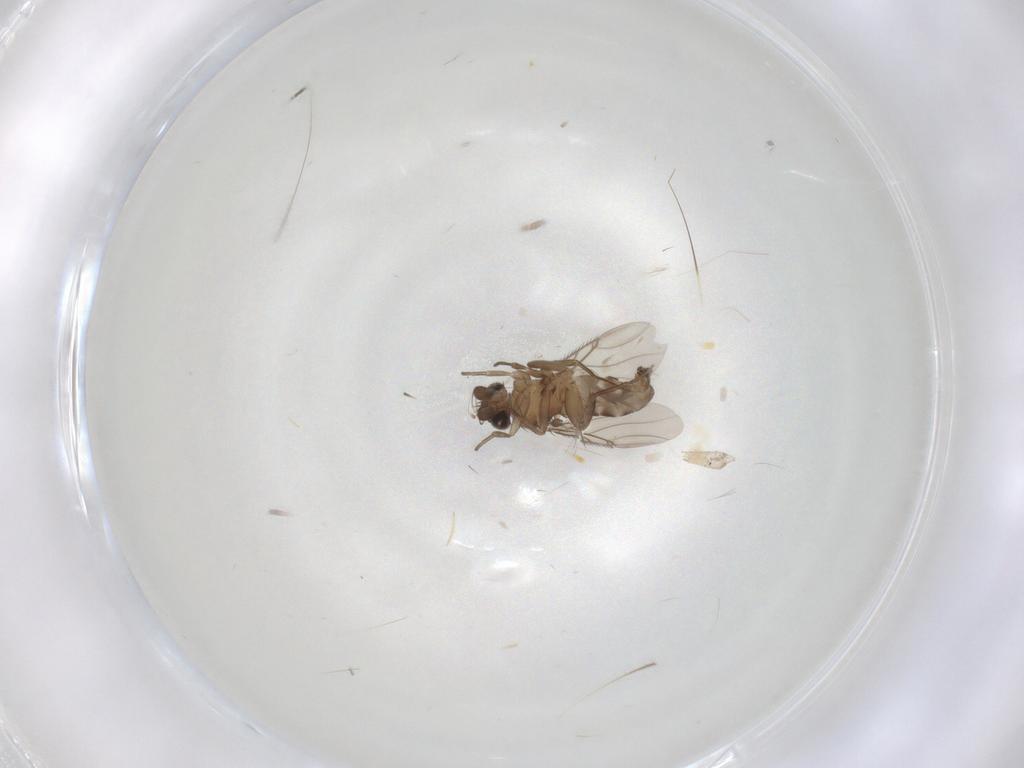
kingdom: Animalia
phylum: Arthropoda
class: Insecta
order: Diptera
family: Phoridae
